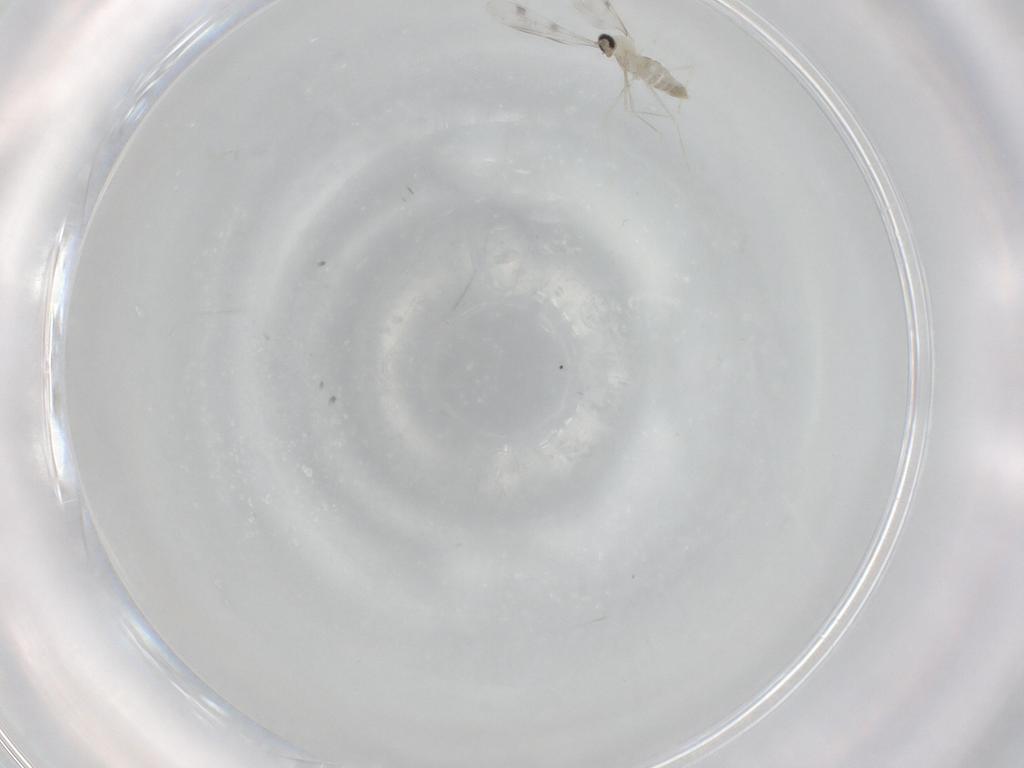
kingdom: Animalia
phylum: Arthropoda
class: Insecta
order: Diptera
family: Cecidomyiidae
